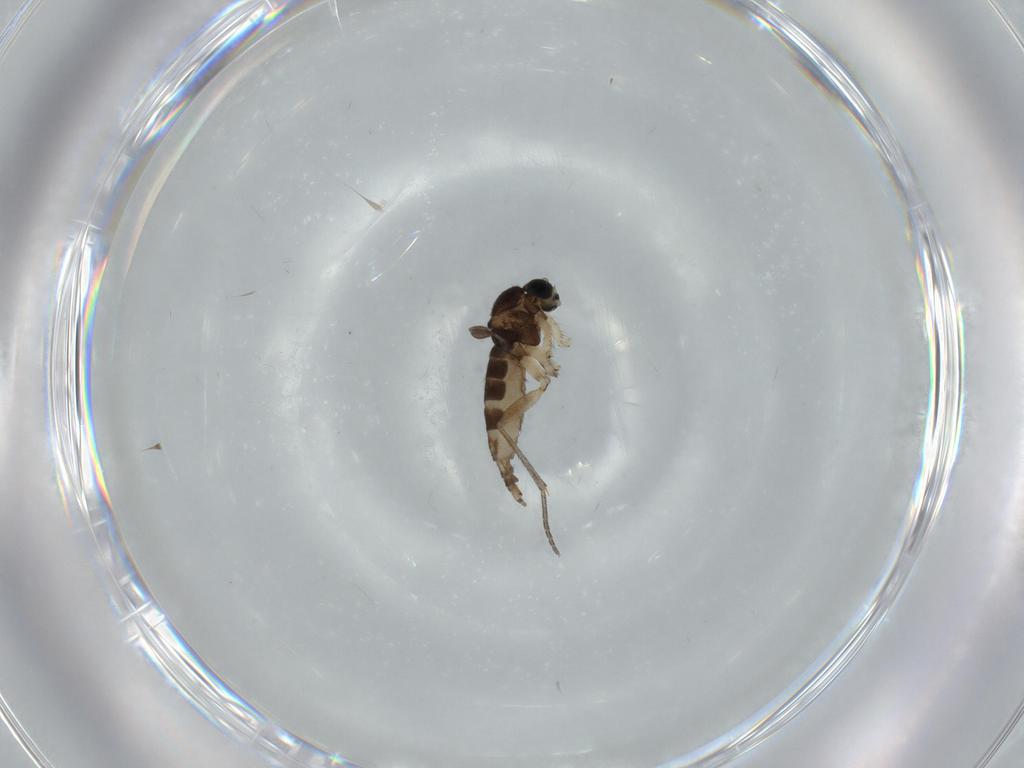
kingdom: Animalia
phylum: Arthropoda
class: Insecta
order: Diptera
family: Sciaridae
